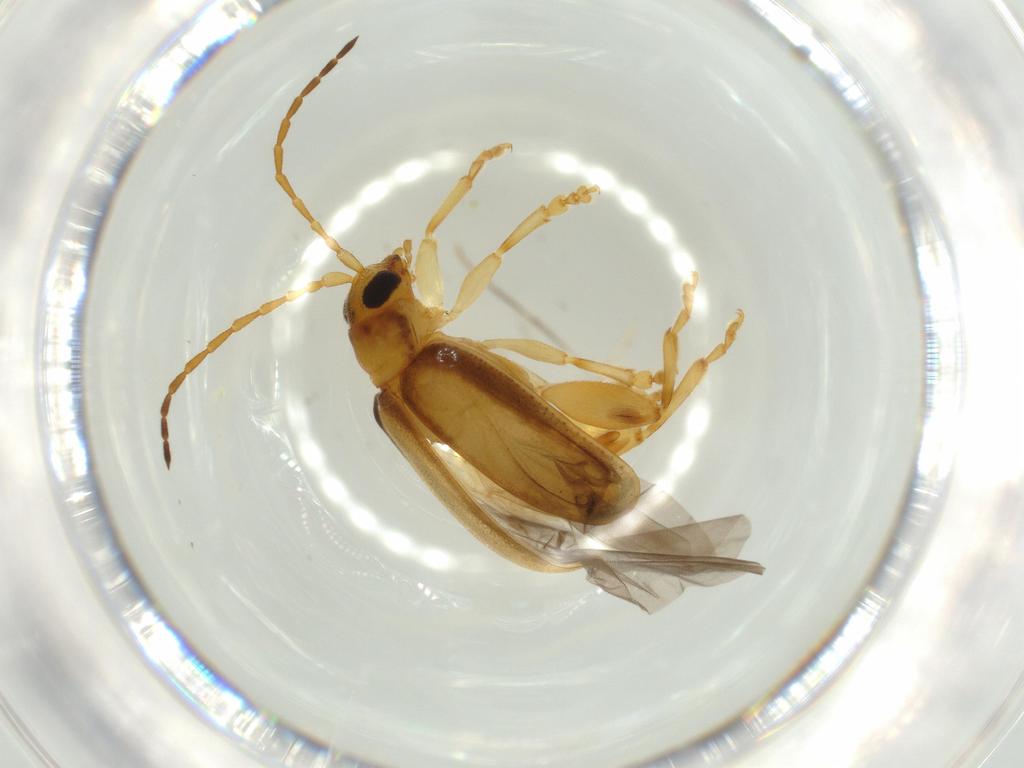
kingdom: Animalia
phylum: Arthropoda
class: Insecta
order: Coleoptera
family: Chrysomelidae
